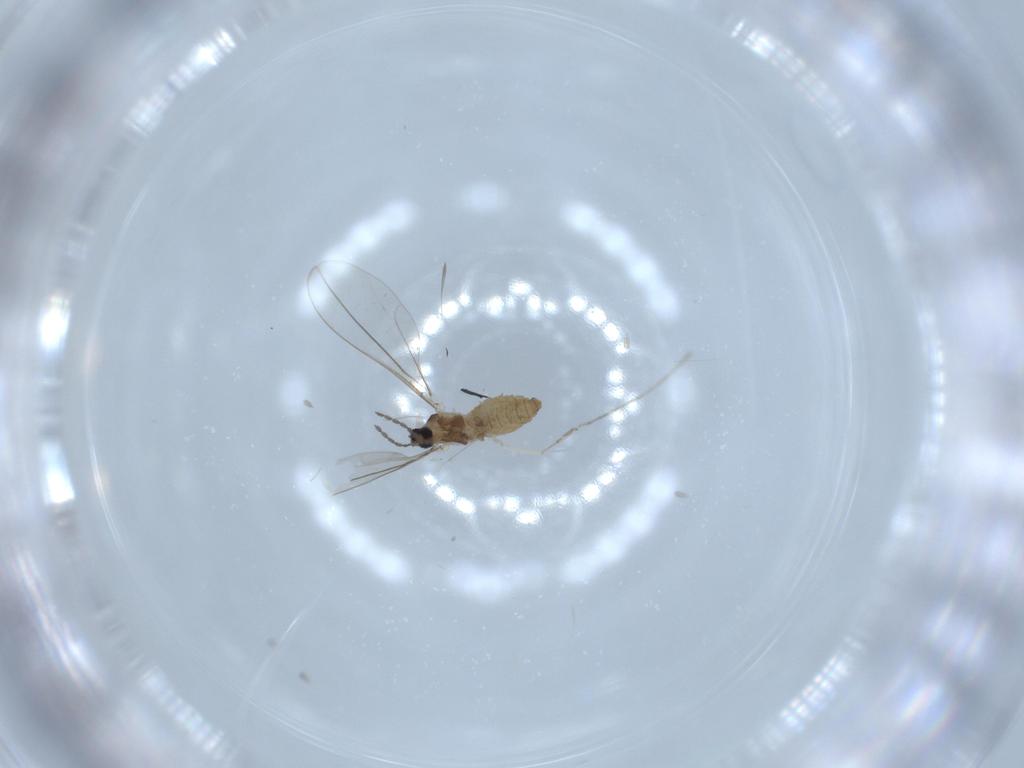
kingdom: Animalia
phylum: Arthropoda
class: Insecta
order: Diptera
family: Cecidomyiidae
